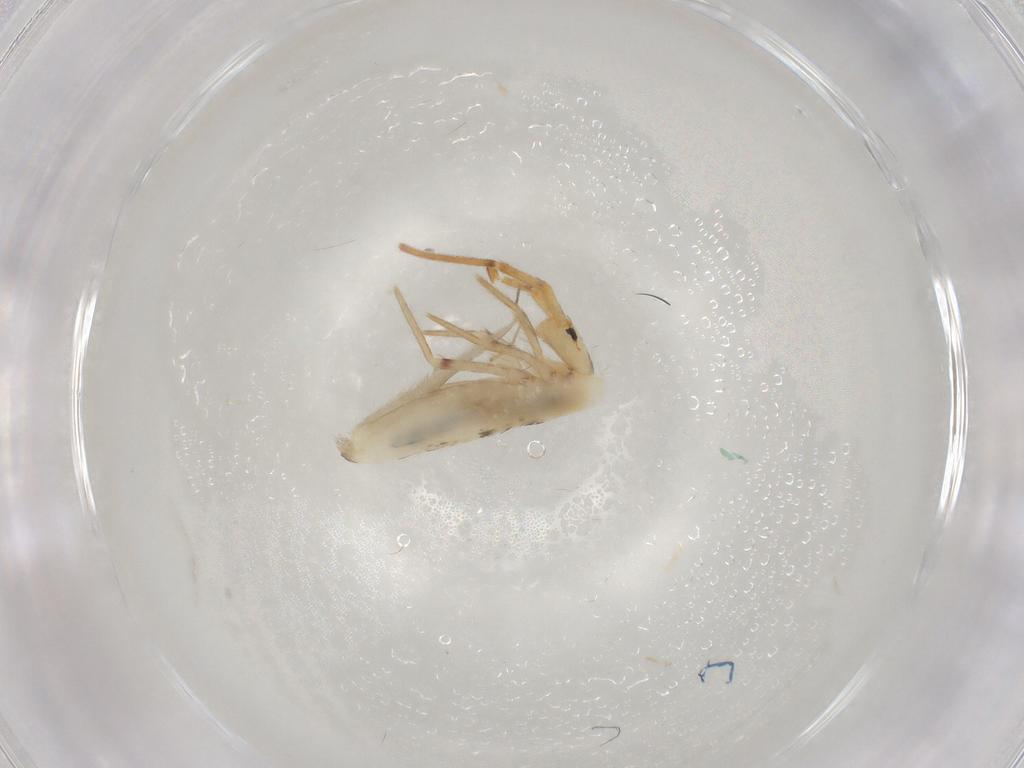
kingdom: Animalia
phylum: Arthropoda
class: Collembola
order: Entomobryomorpha
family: Entomobryidae
